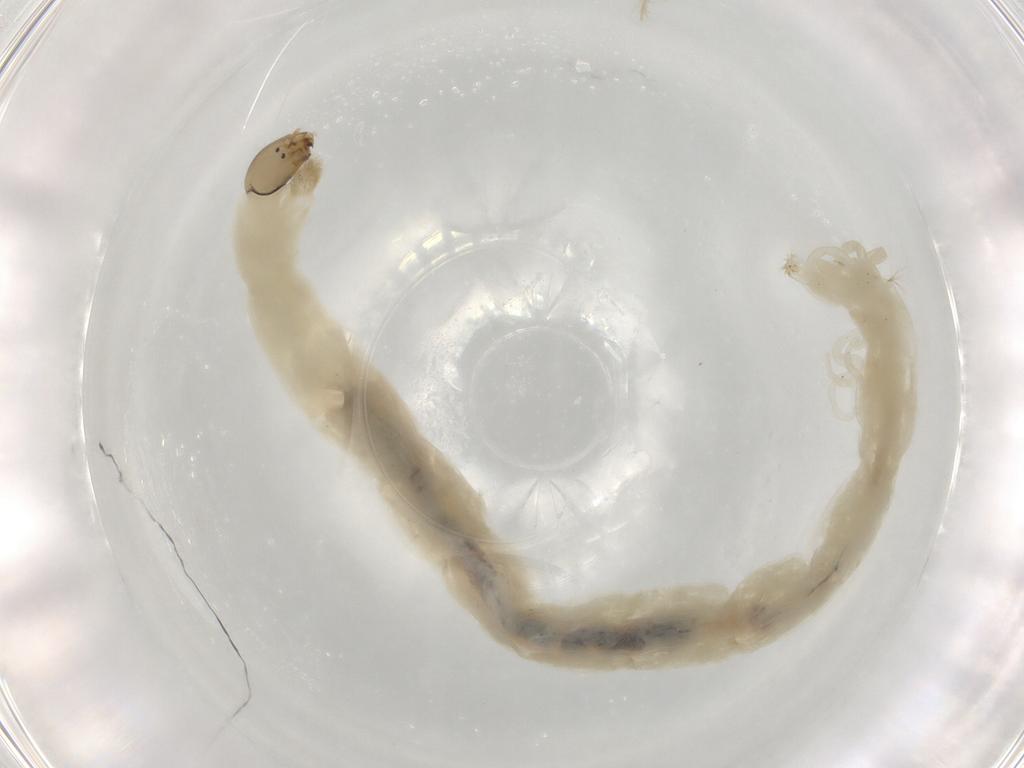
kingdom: Animalia
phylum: Arthropoda
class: Insecta
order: Diptera
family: Chironomidae
